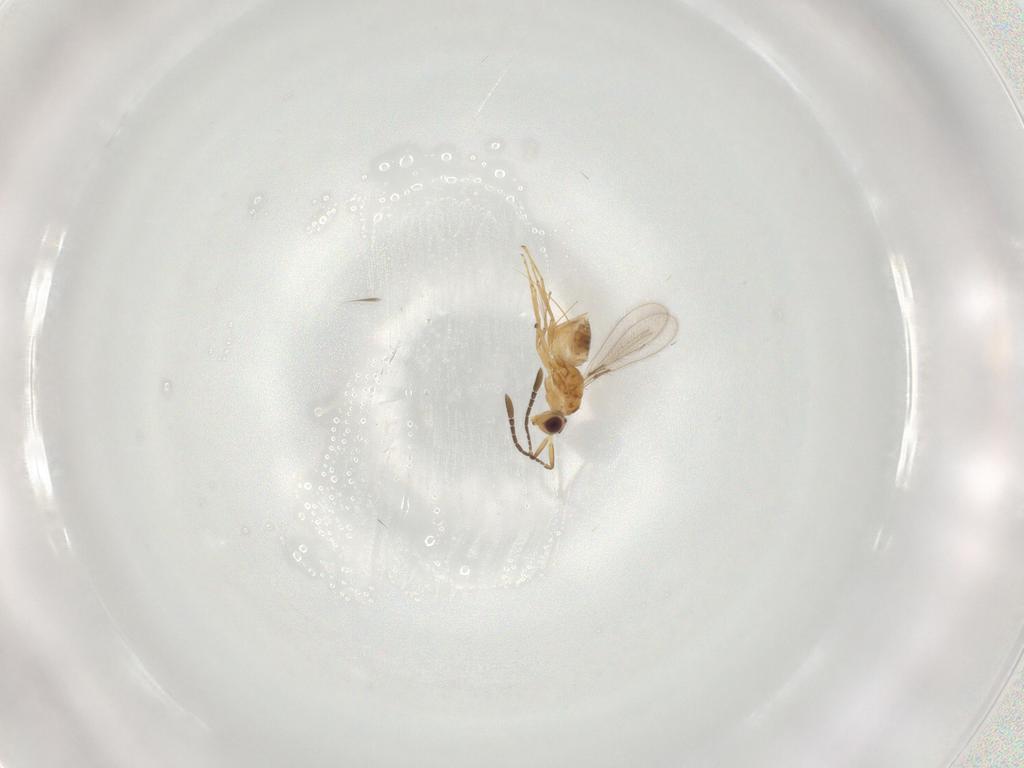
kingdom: Animalia
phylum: Arthropoda
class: Insecta
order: Hymenoptera
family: Mymaridae
